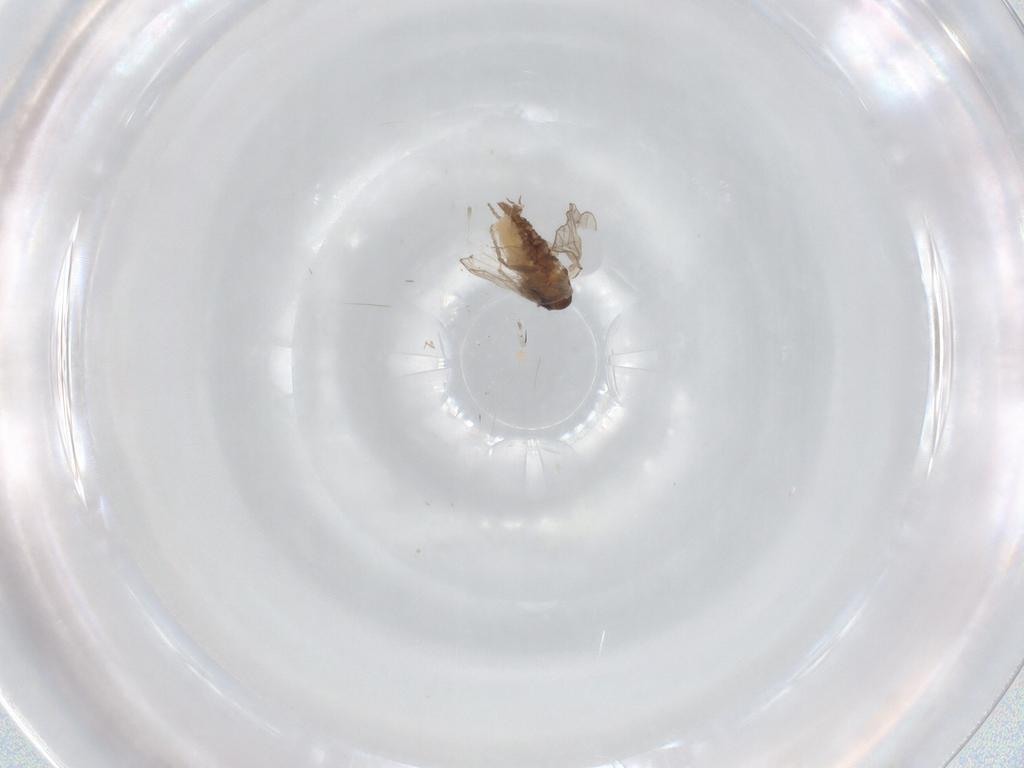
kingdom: Animalia
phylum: Arthropoda
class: Insecta
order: Diptera
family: Psychodidae
